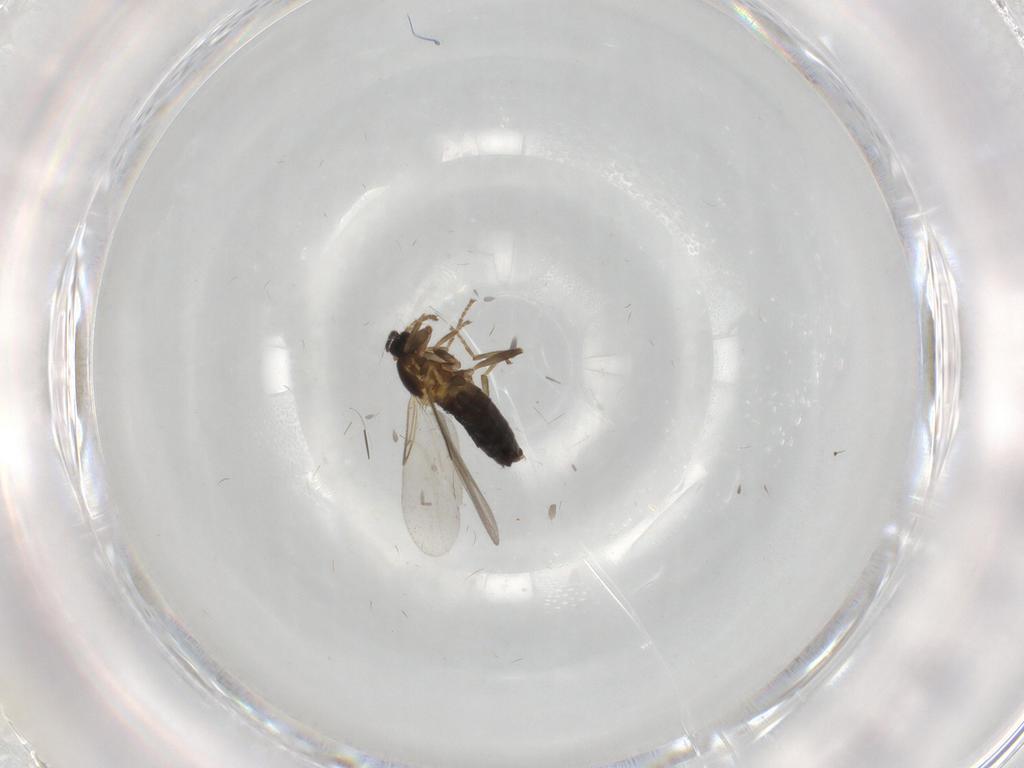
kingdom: Animalia
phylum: Arthropoda
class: Insecta
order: Diptera
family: Scatopsidae
